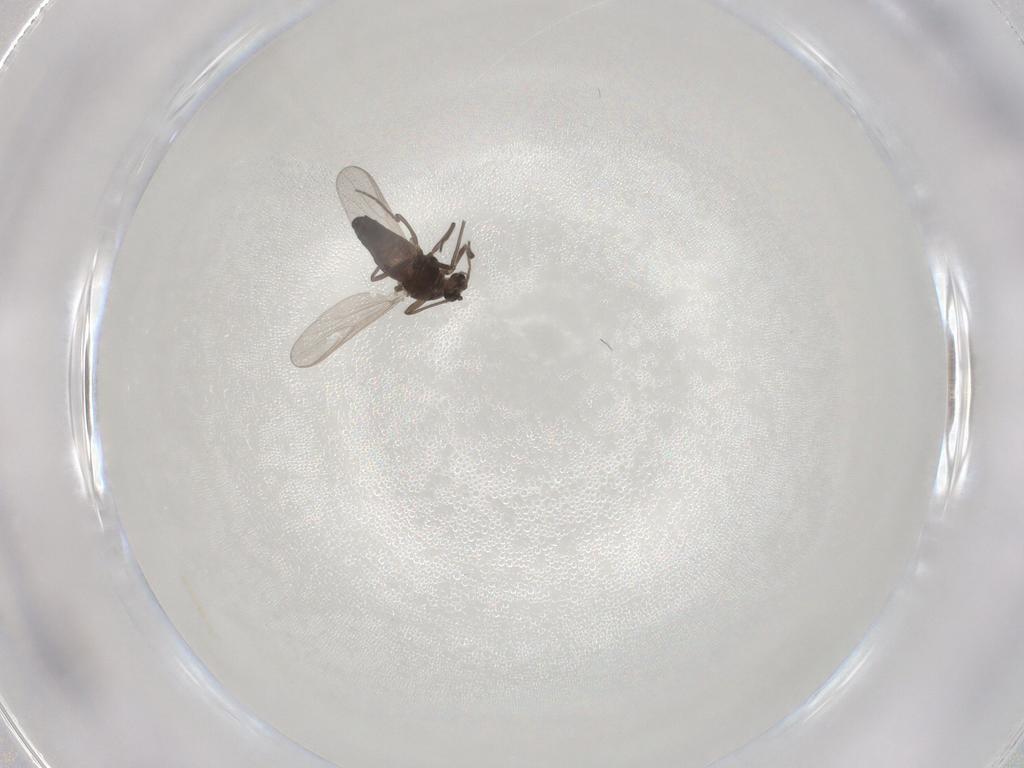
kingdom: Animalia
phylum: Arthropoda
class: Insecta
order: Diptera
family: Chironomidae
